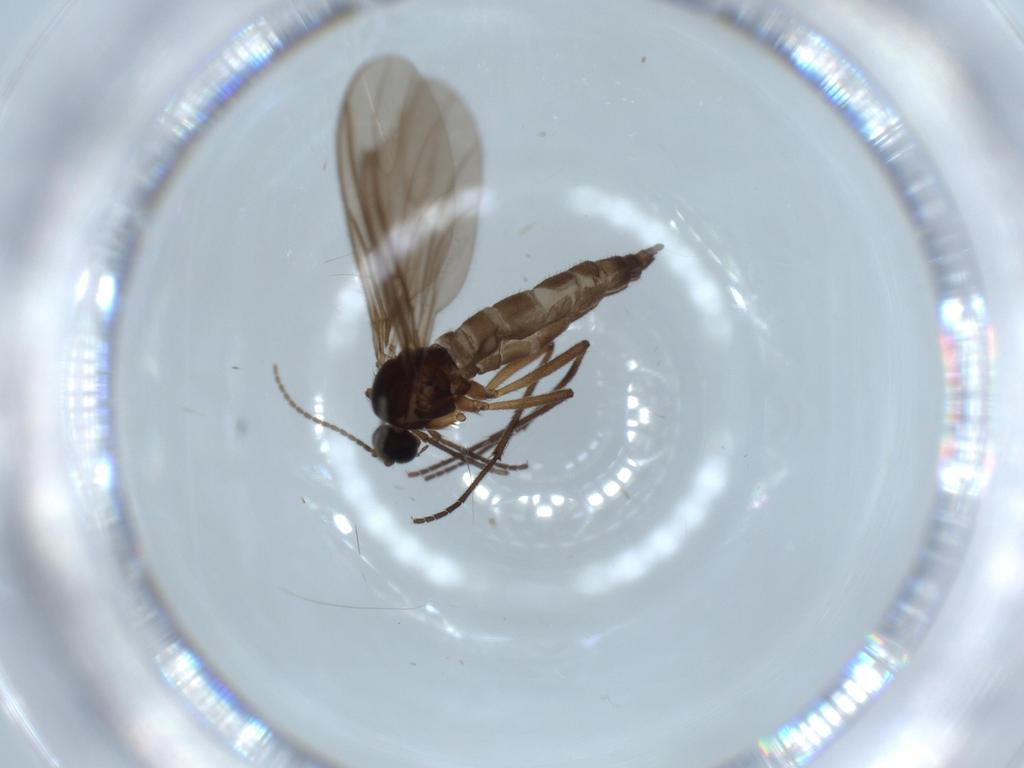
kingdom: Animalia
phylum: Arthropoda
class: Insecta
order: Diptera
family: Sciaridae
